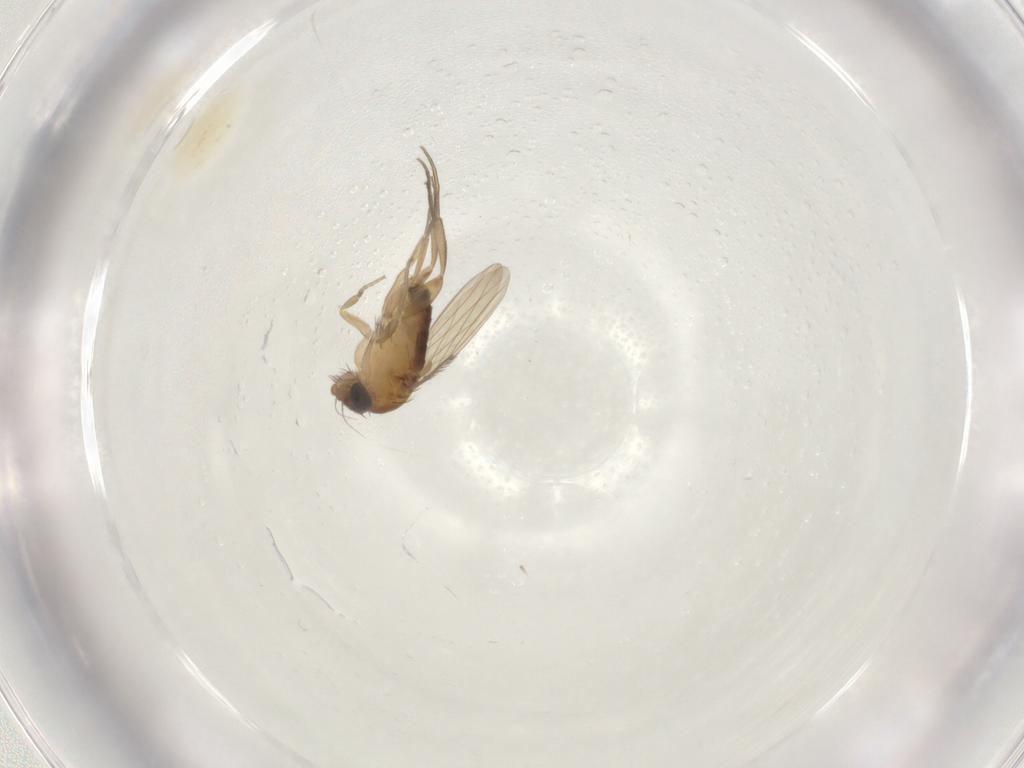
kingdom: Animalia
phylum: Arthropoda
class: Insecta
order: Diptera
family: Phoridae
